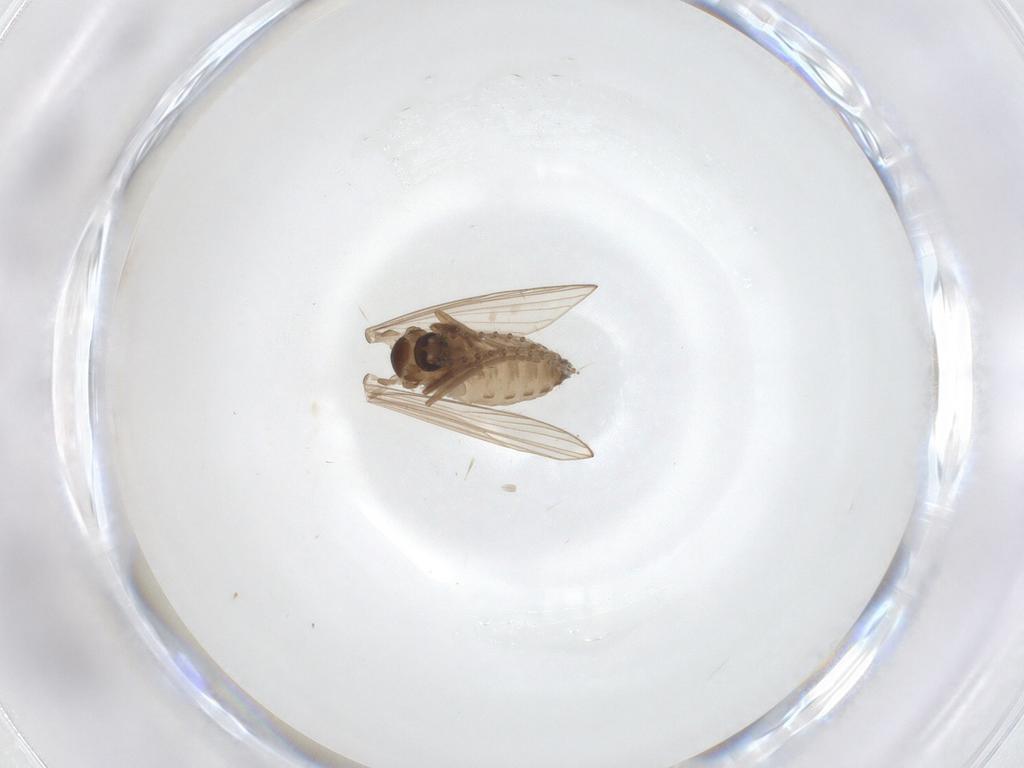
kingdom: Animalia
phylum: Arthropoda
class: Insecta
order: Diptera
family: Psychodidae
